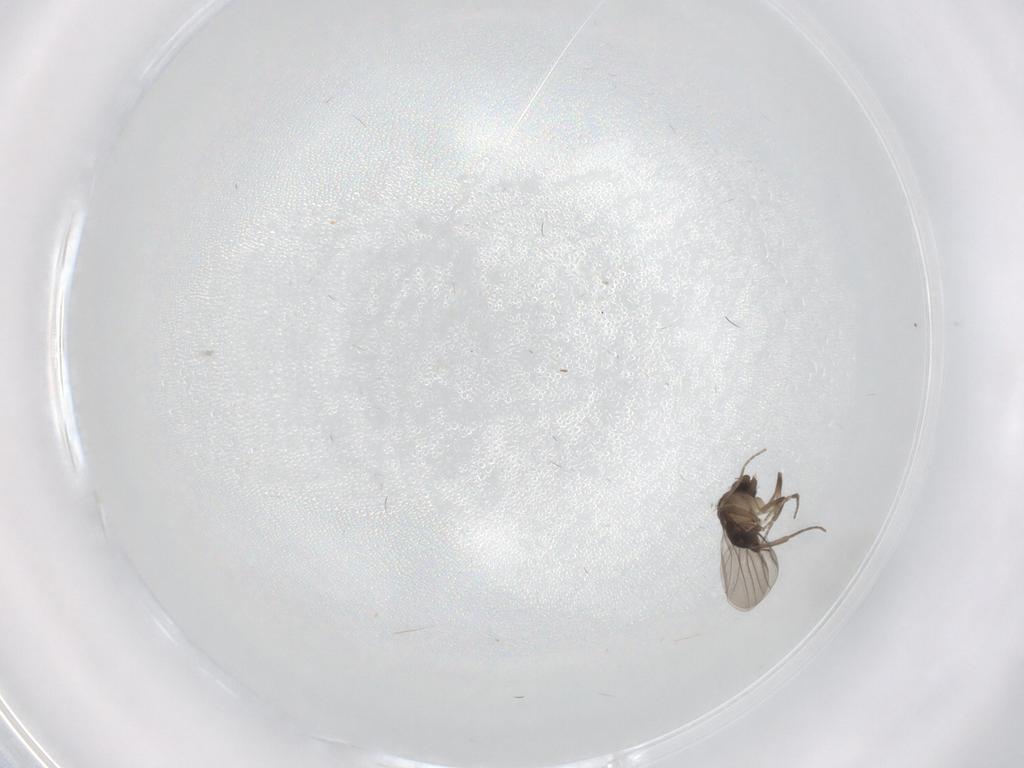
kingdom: Animalia
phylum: Arthropoda
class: Insecta
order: Diptera
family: Phoridae
